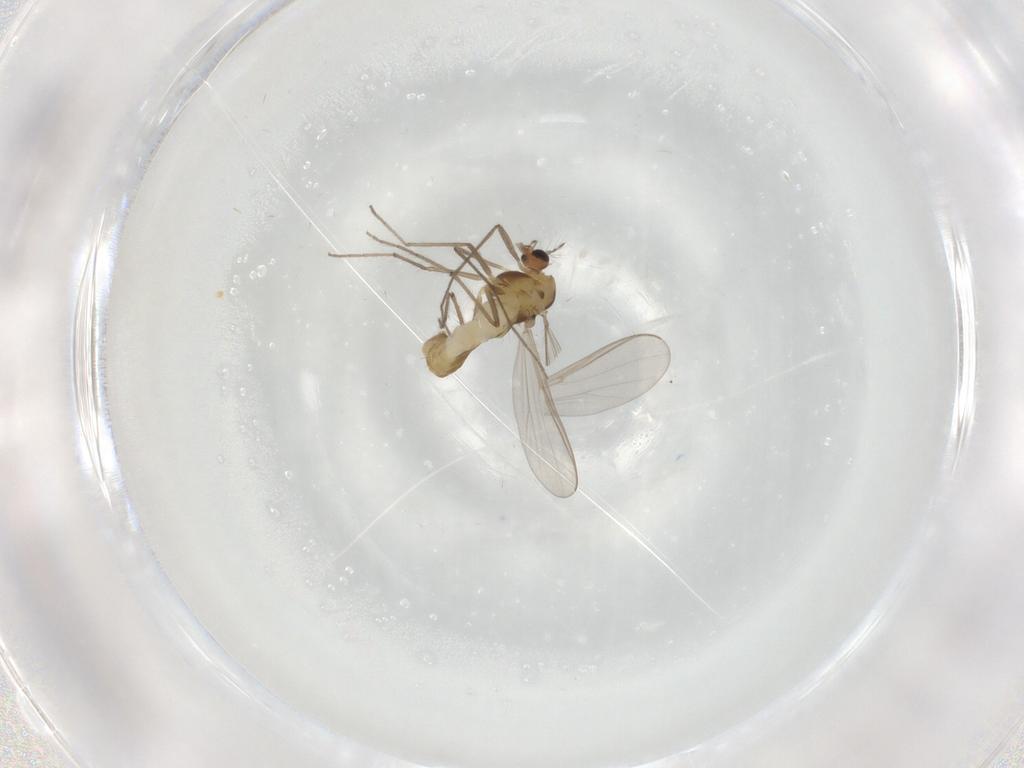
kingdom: Animalia
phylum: Arthropoda
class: Insecta
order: Diptera
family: Chironomidae
